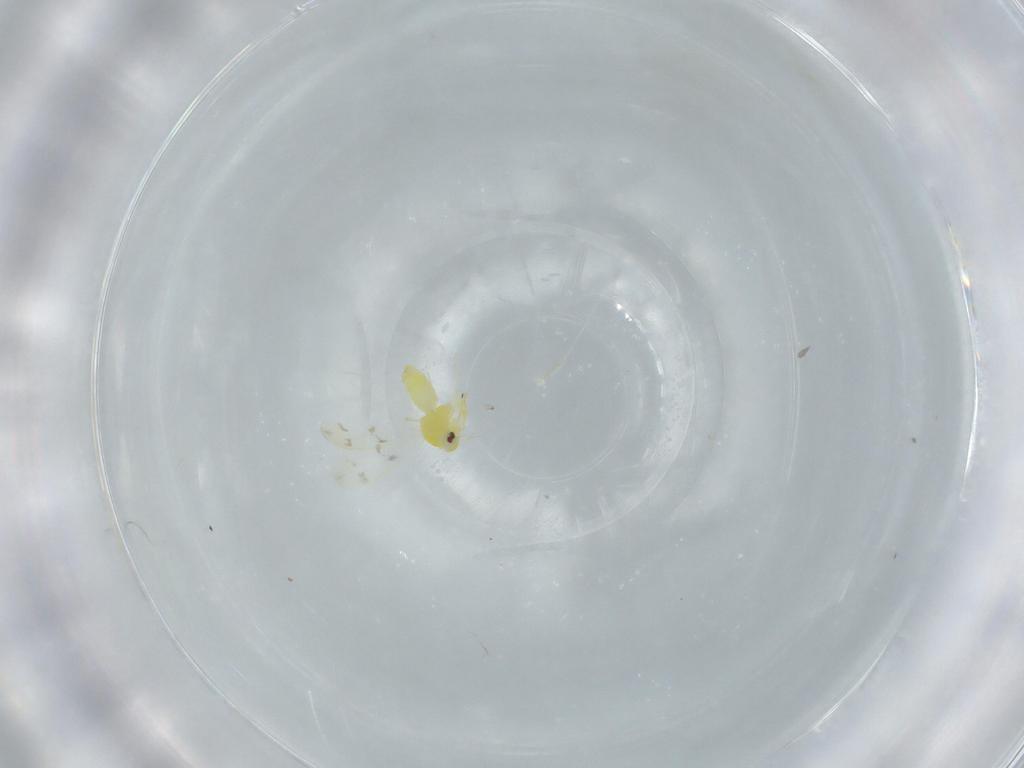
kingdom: Animalia
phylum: Arthropoda
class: Insecta
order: Hemiptera
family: Aleyrodidae
